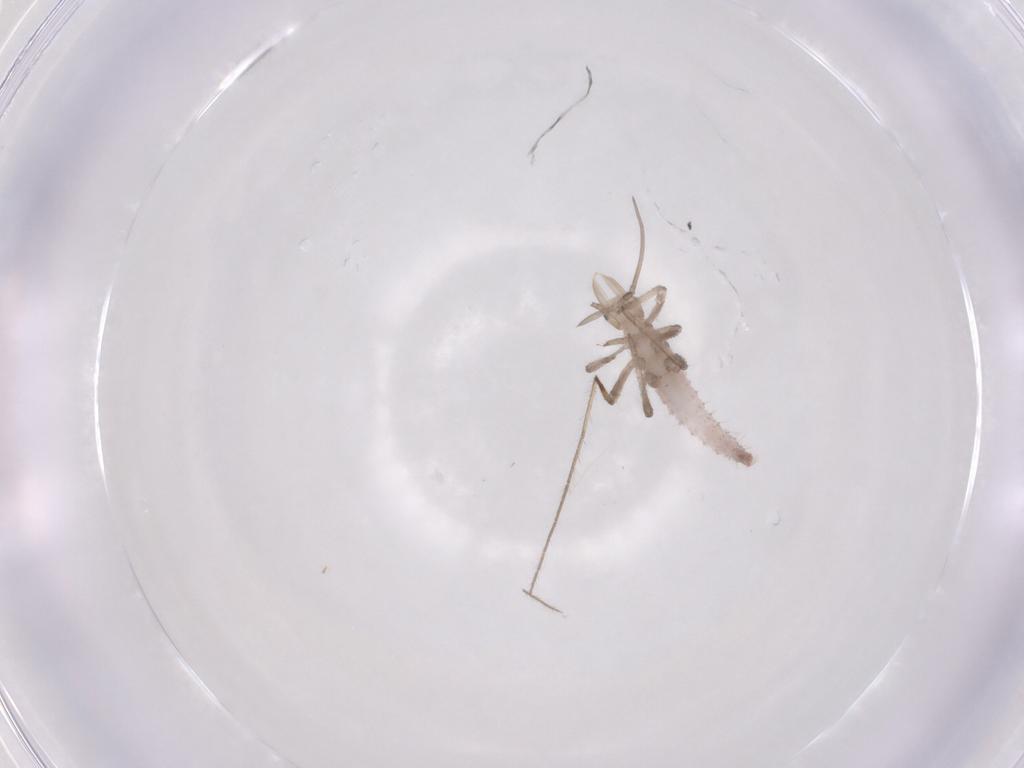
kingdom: Animalia
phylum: Arthropoda
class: Insecta
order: Neuroptera
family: Hemerobiidae
